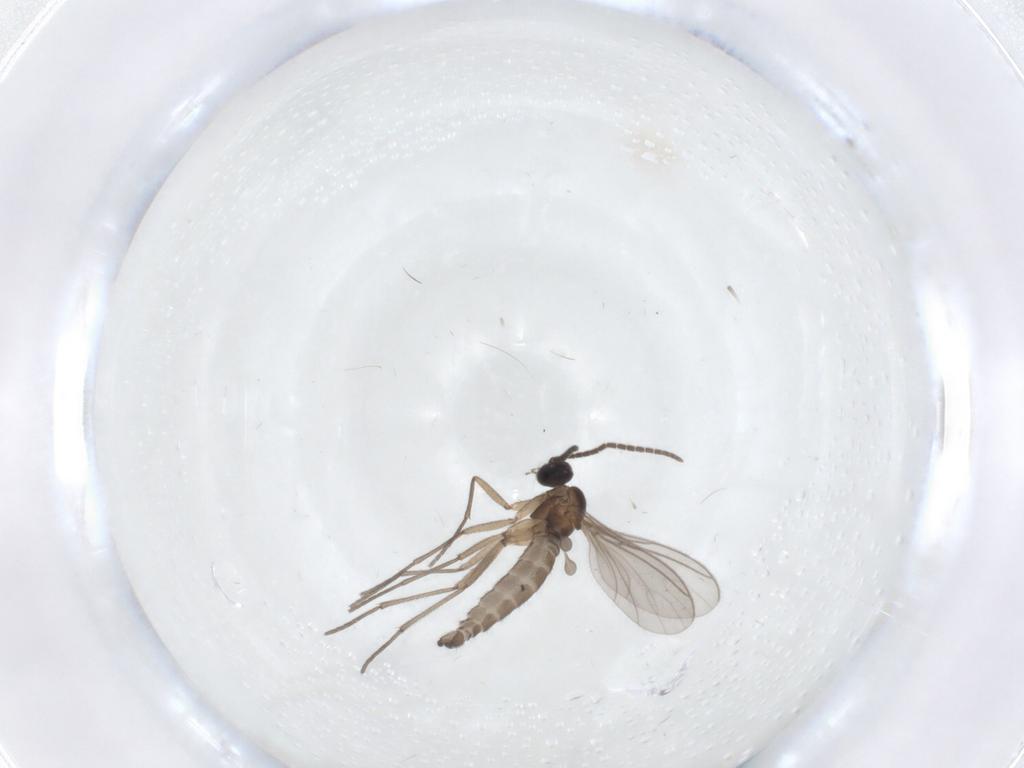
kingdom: Animalia
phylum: Arthropoda
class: Insecta
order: Diptera
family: Sciaridae
